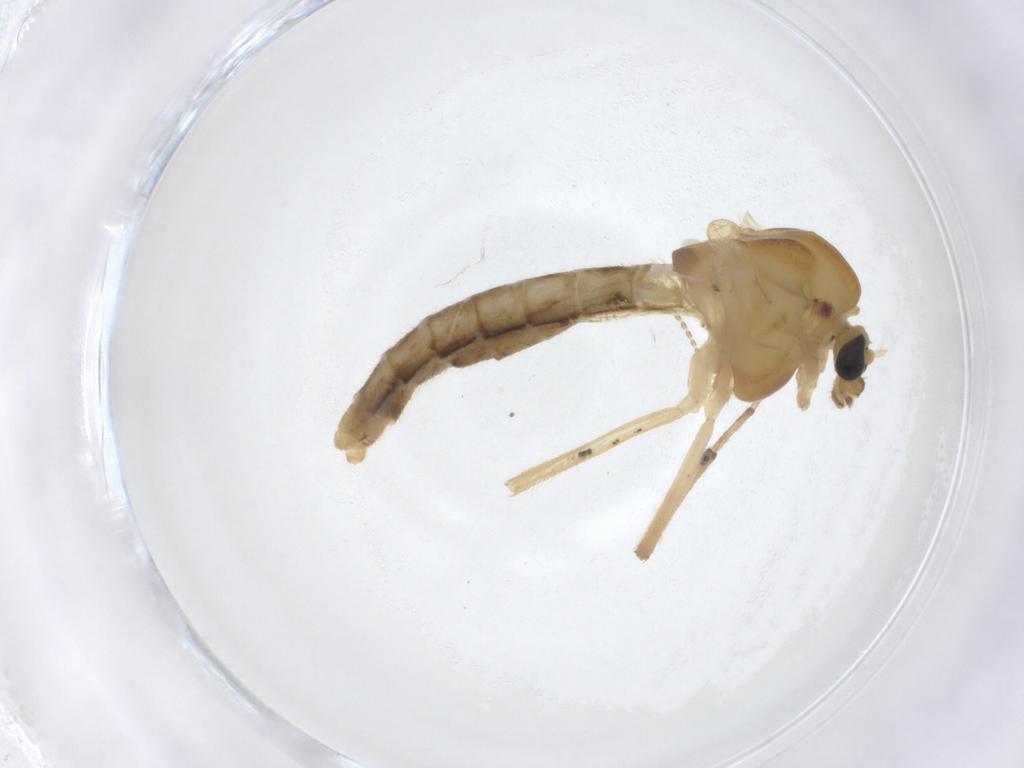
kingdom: Animalia
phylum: Arthropoda
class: Insecta
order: Diptera
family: Chironomidae
